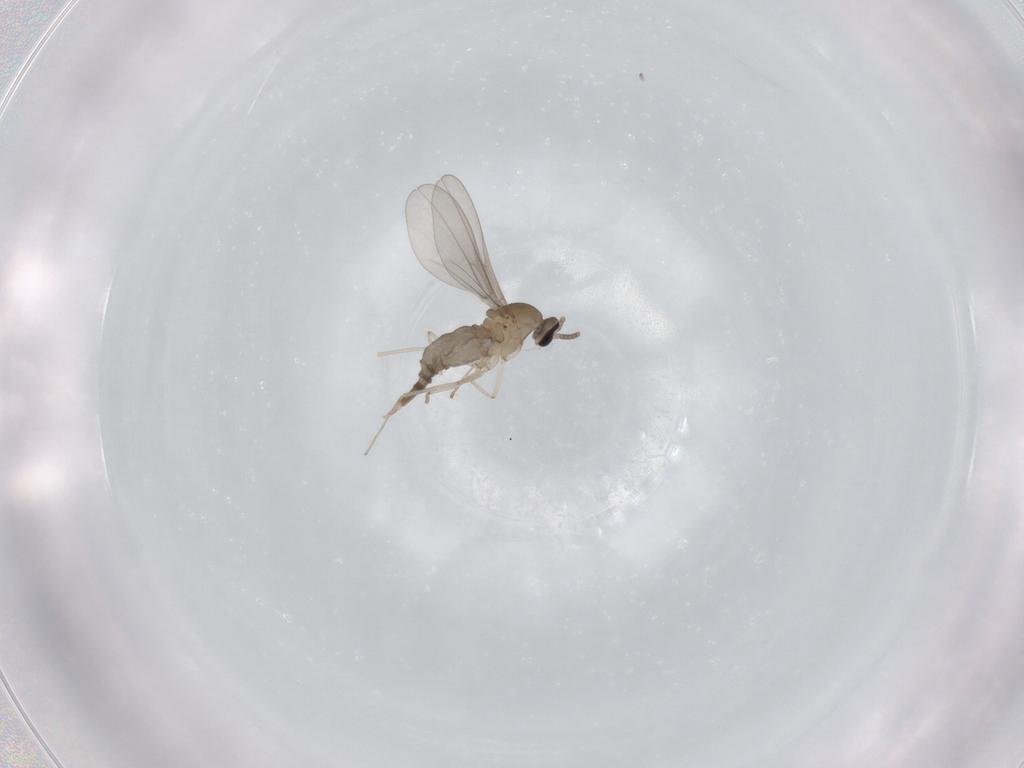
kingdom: Animalia
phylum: Arthropoda
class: Insecta
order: Diptera
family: Cecidomyiidae
